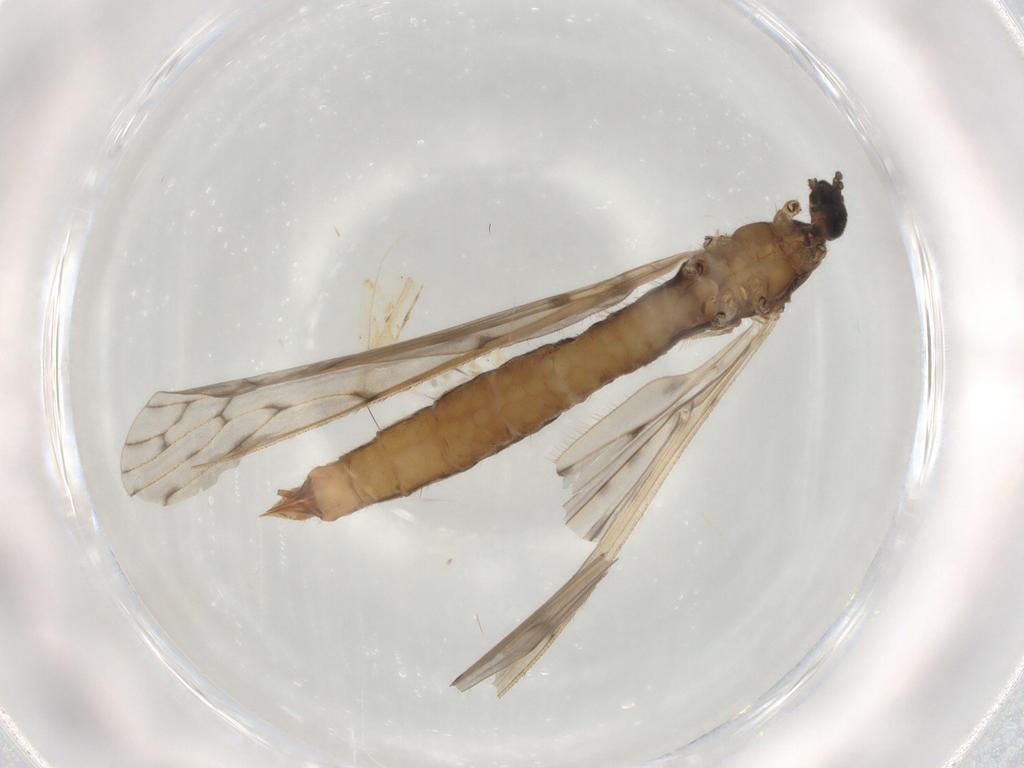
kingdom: Animalia
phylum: Arthropoda
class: Insecta
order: Diptera
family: Limoniidae
